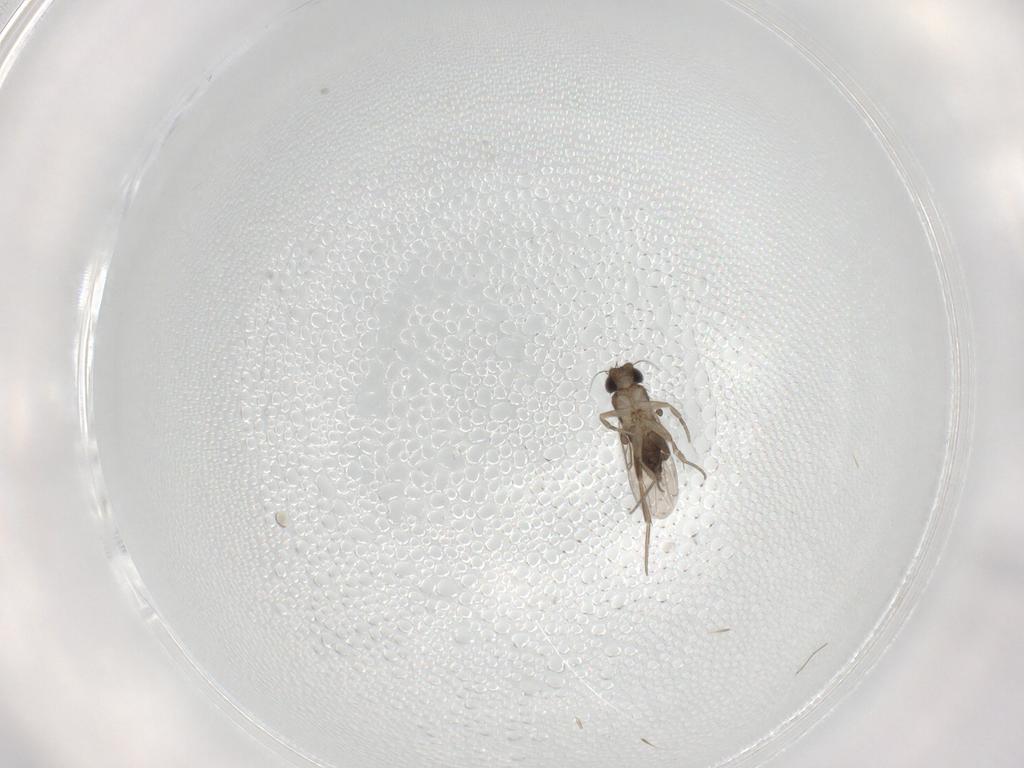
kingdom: Animalia
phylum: Arthropoda
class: Insecta
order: Diptera
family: Phoridae
